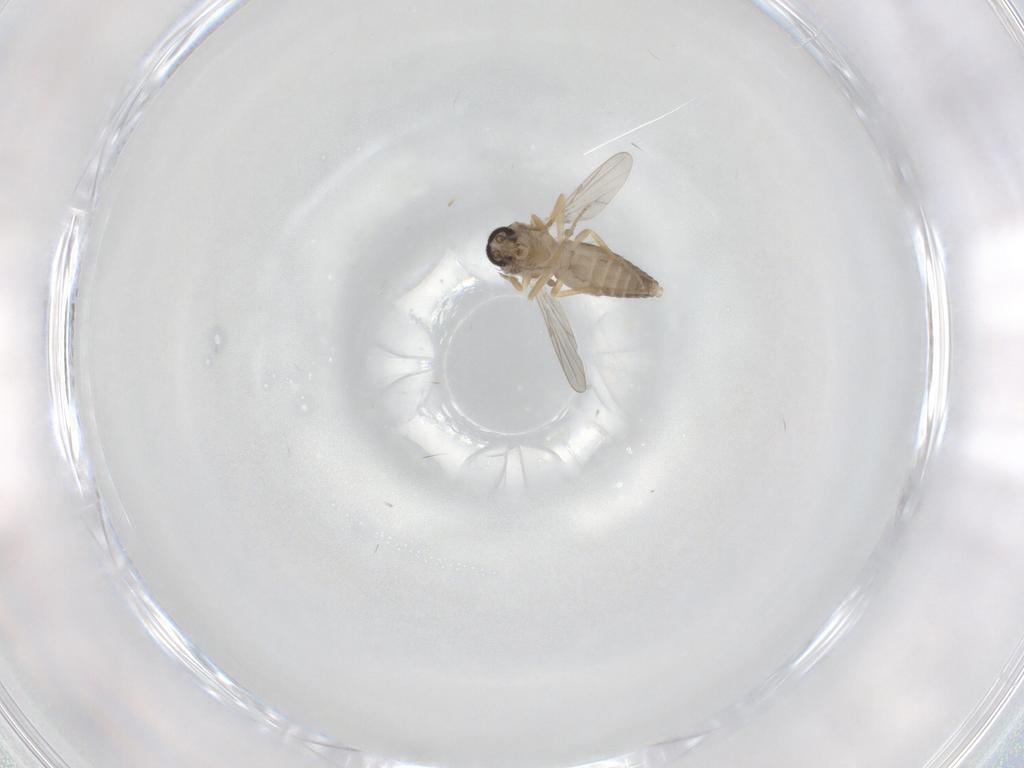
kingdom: Animalia
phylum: Arthropoda
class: Insecta
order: Diptera
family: Ceratopogonidae
